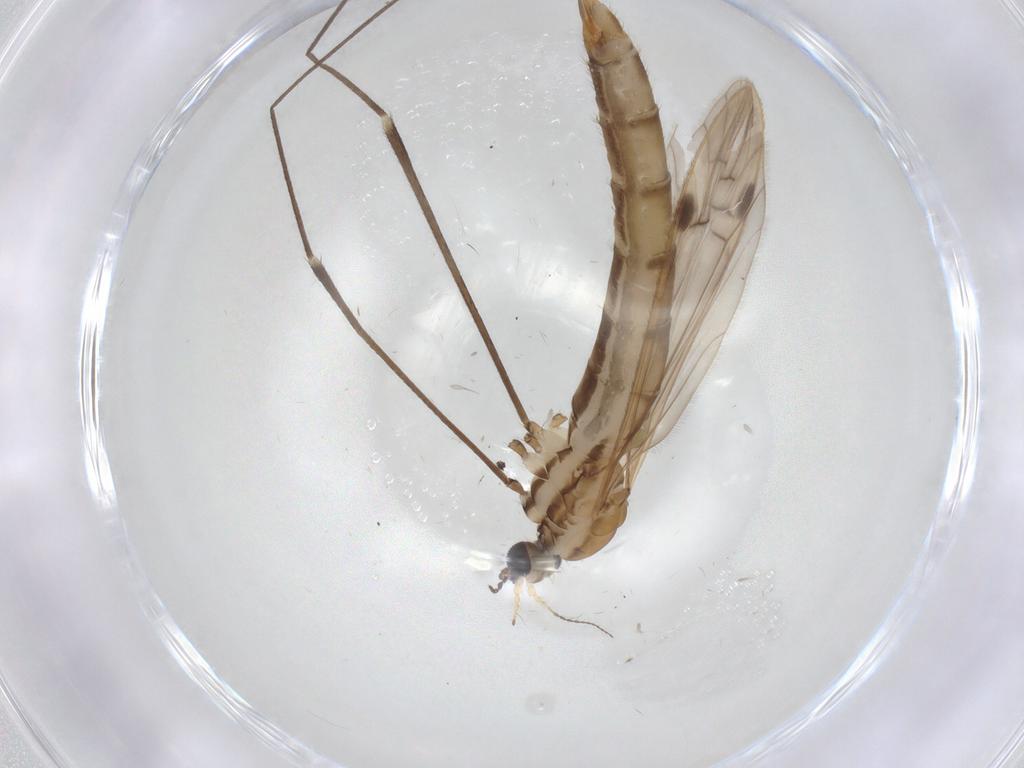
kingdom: Animalia
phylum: Arthropoda
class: Insecta
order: Diptera
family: Limoniidae
